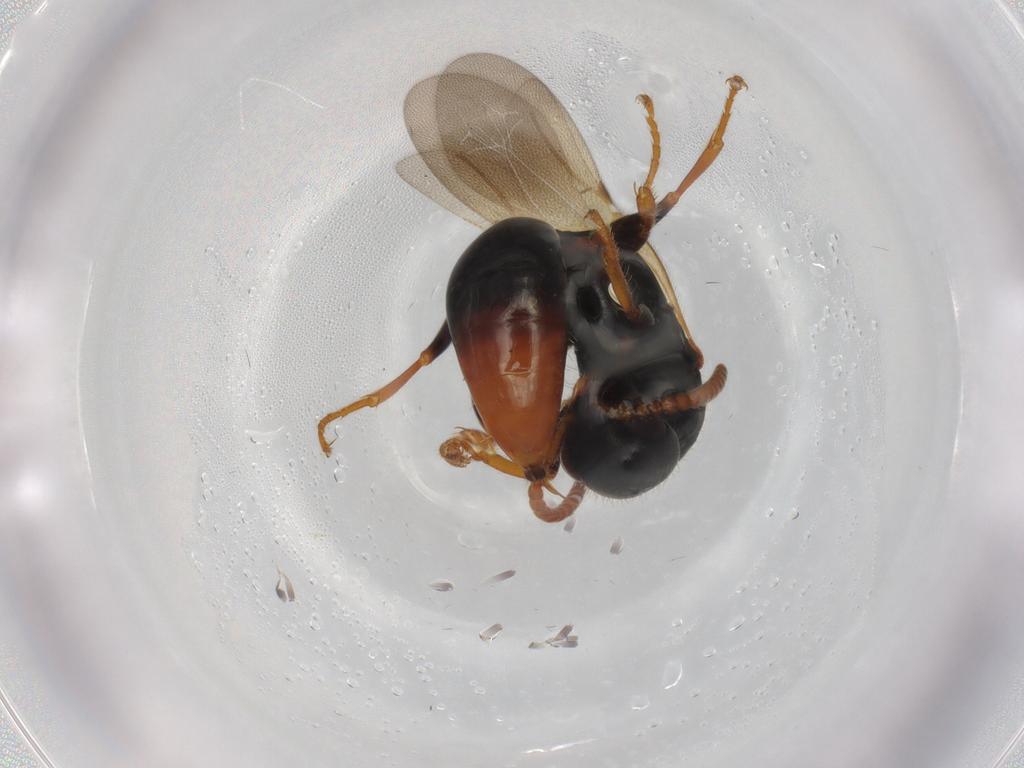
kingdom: Animalia
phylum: Arthropoda
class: Insecta
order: Hymenoptera
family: Bethylidae
